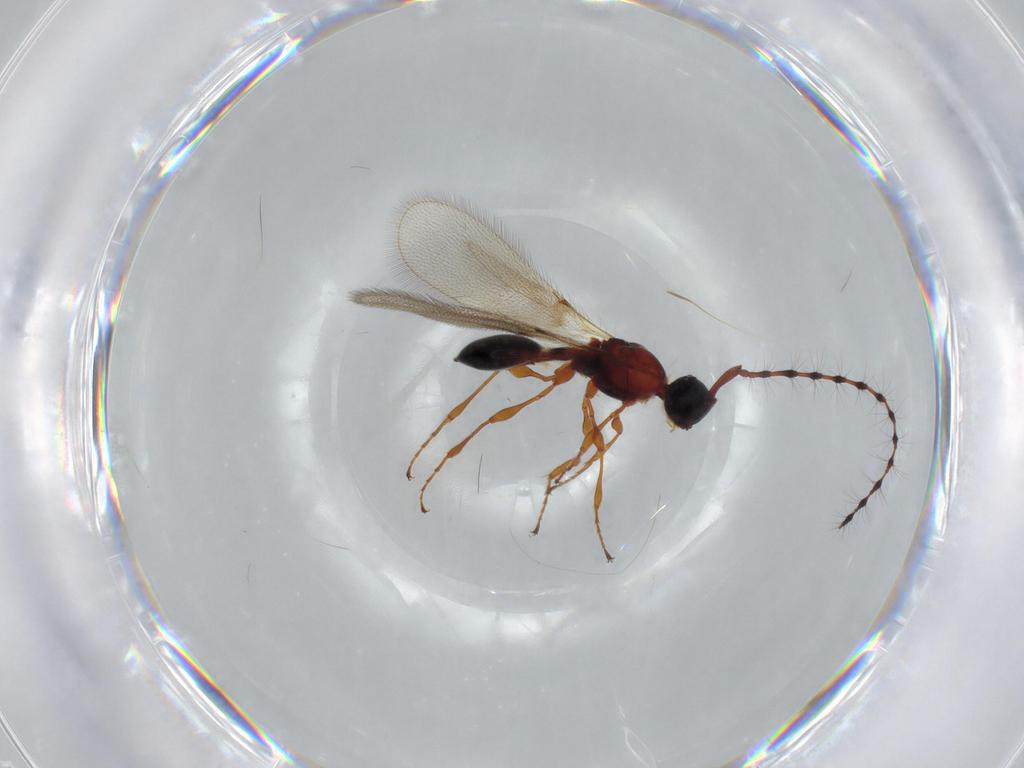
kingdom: Animalia
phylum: Arthropoda
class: Insecta
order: Hymenoptera
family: Diapriidae
